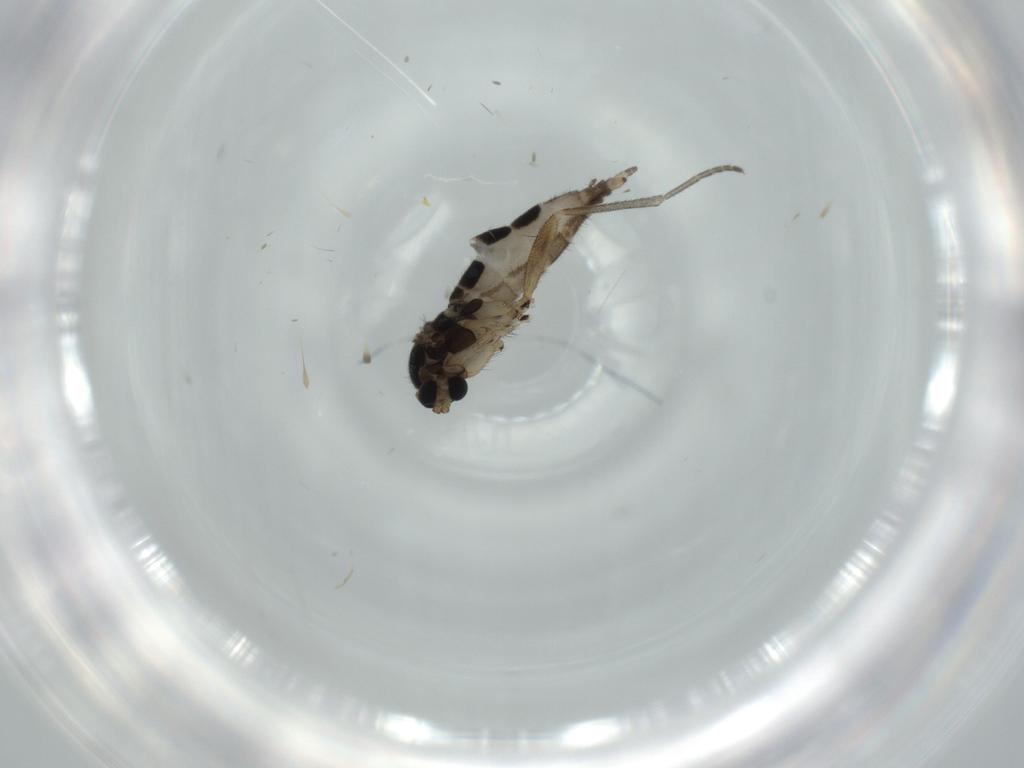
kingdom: Animalia
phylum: Arthropoda
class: Insecta
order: Diptera
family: Sciaridae
